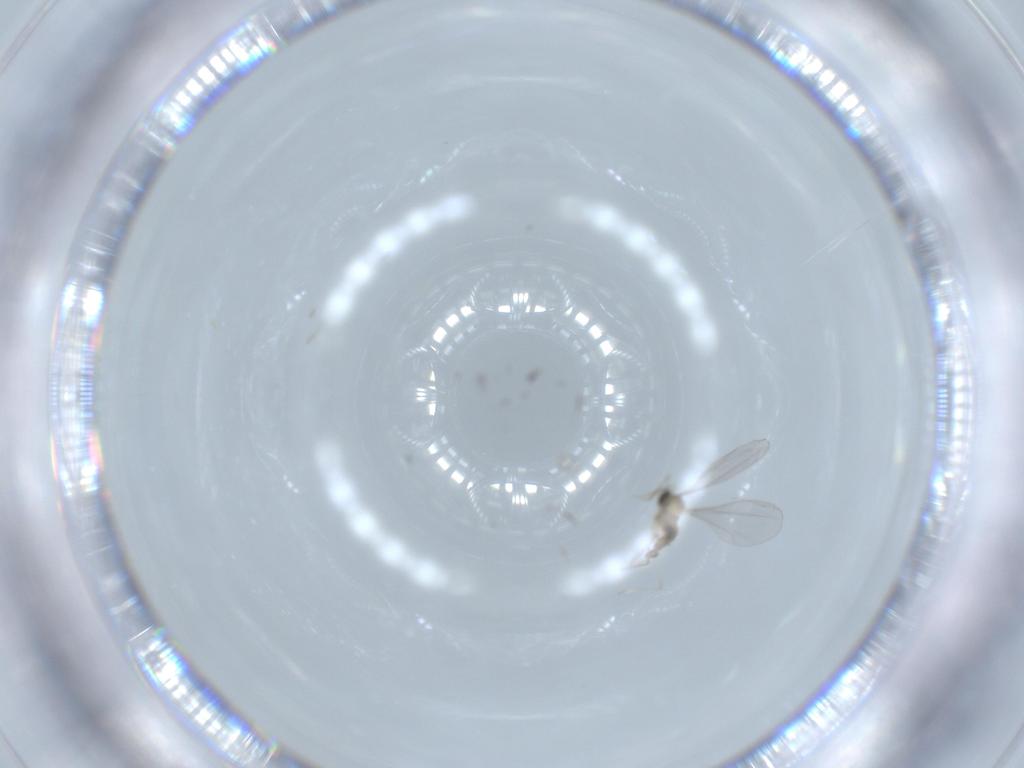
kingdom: Animalia
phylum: Arthropoda
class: Insecta
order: Diptera
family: Cecidomyiidae
